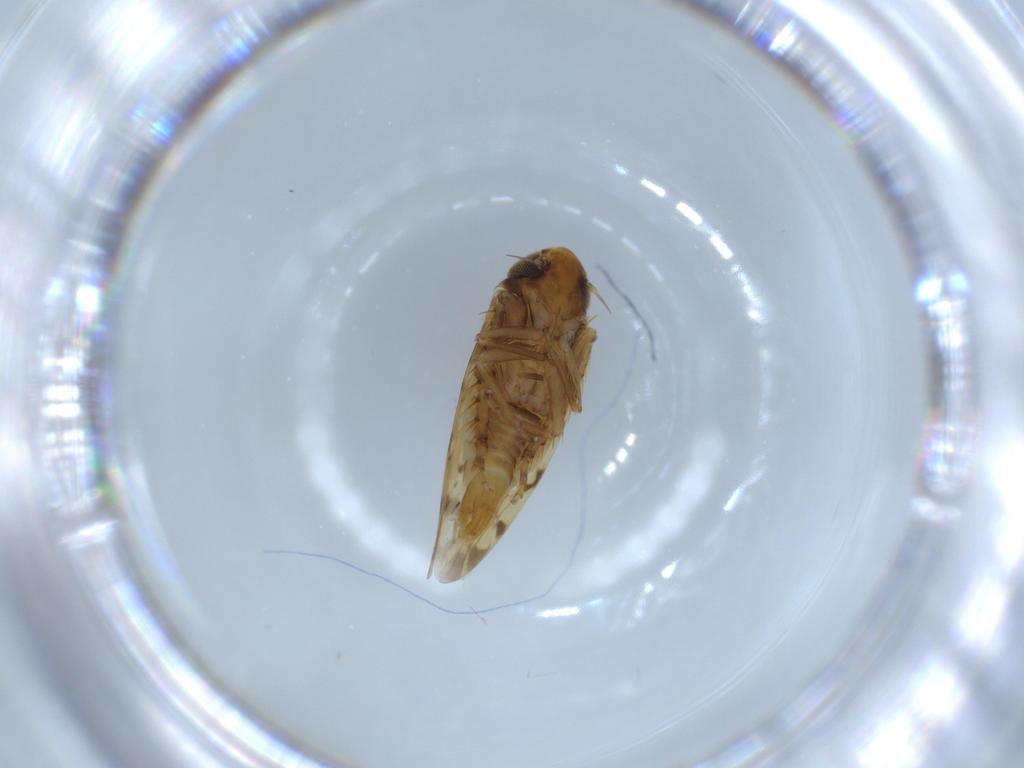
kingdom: Animalia
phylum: Arthropoda
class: Insecta
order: Hemiptera
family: Cicadellidae
